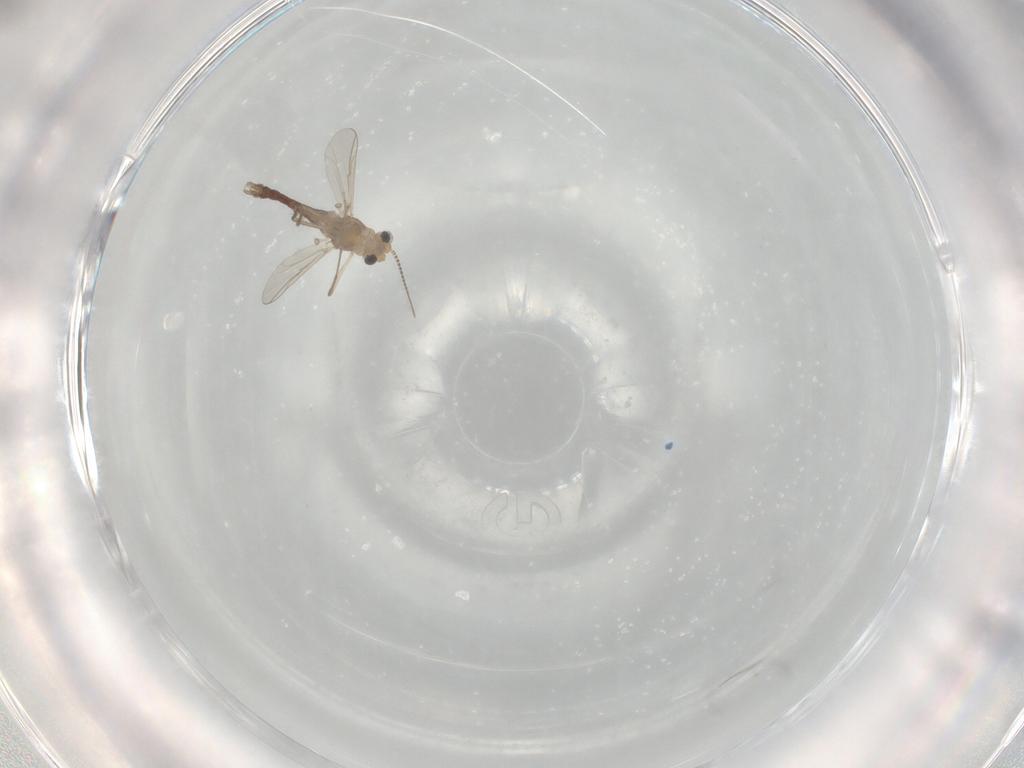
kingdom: Animalia
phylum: Arthropoda
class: Insecta
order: Diptera
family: Chironomidae
